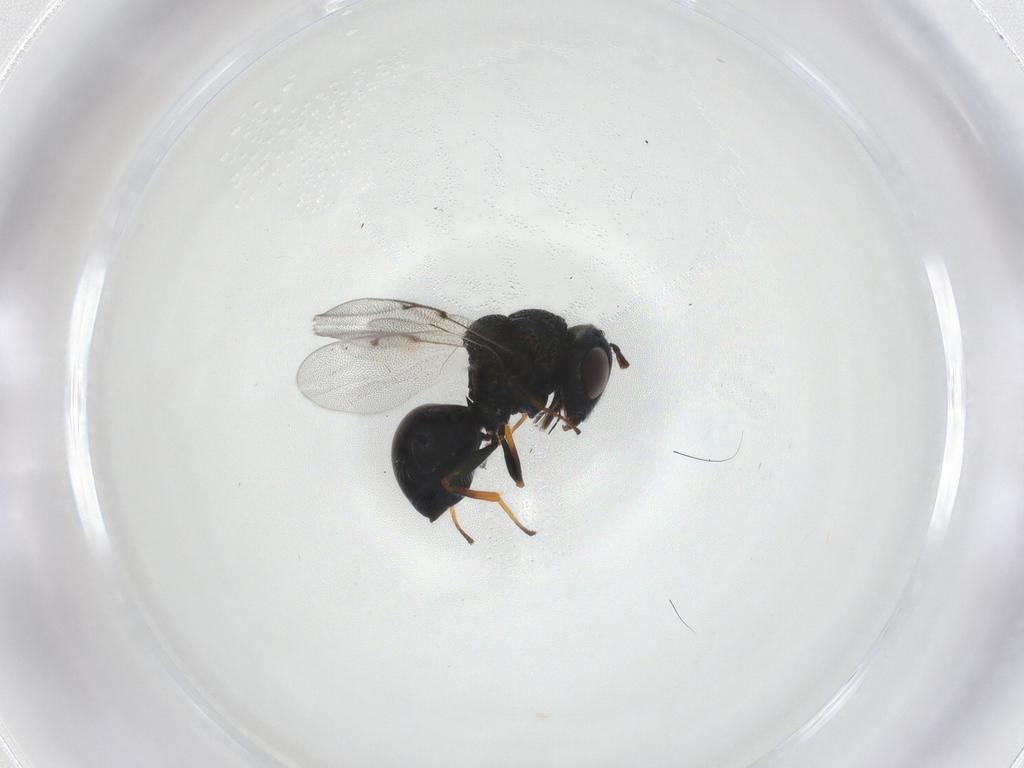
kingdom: Animalia
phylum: Arthropoda
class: Insecta
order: Hymenoptera
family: Perilampidae
